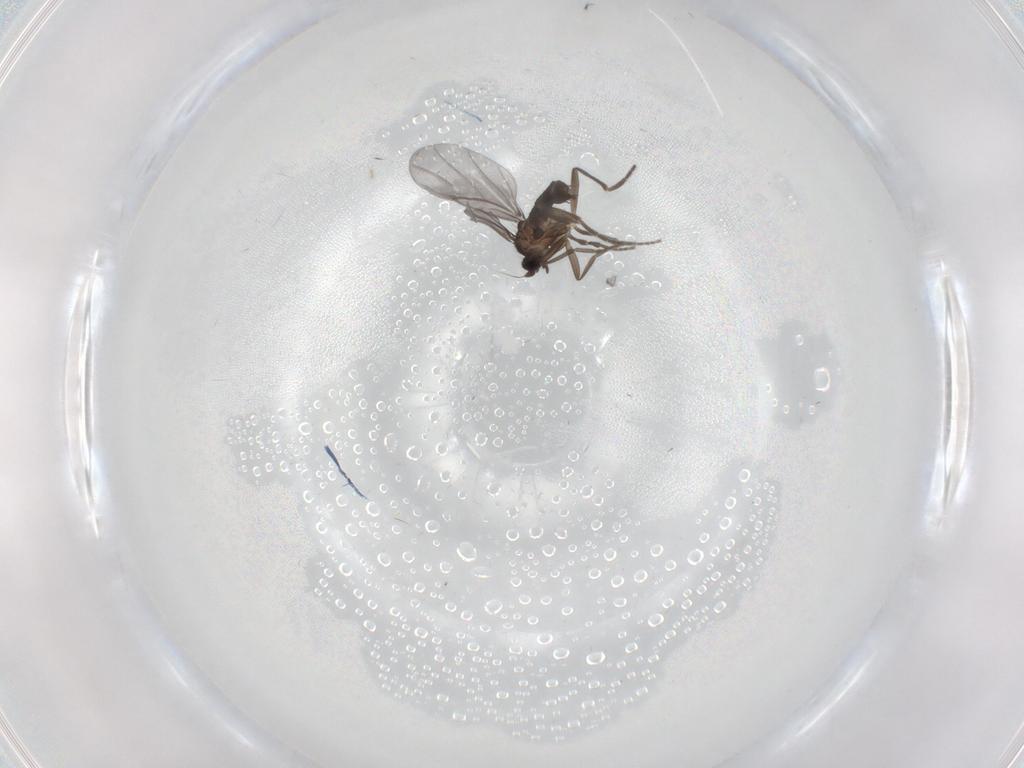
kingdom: Animalia
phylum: Arthropoda
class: Insecta
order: Diptera
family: Phoridae
